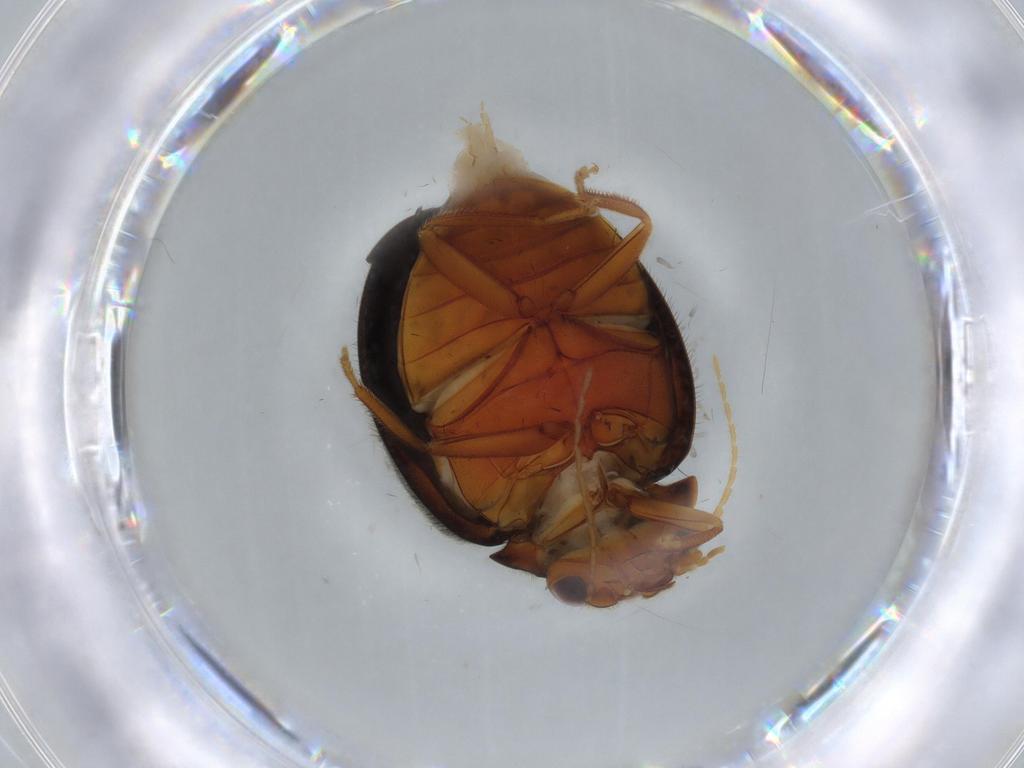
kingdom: Animalia
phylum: Arthropoda
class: Insecta
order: Coleoptera
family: Scirtidae
